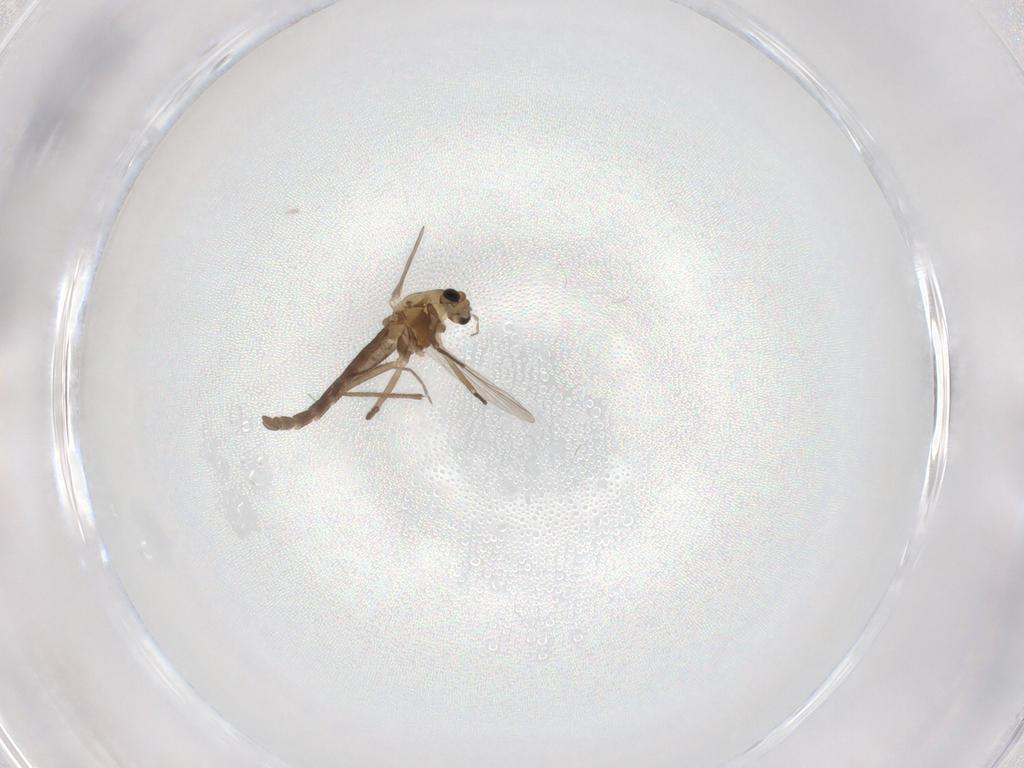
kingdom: Animalia
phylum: Arthropoda
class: Insecta
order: Diptera
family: Chironomidae
